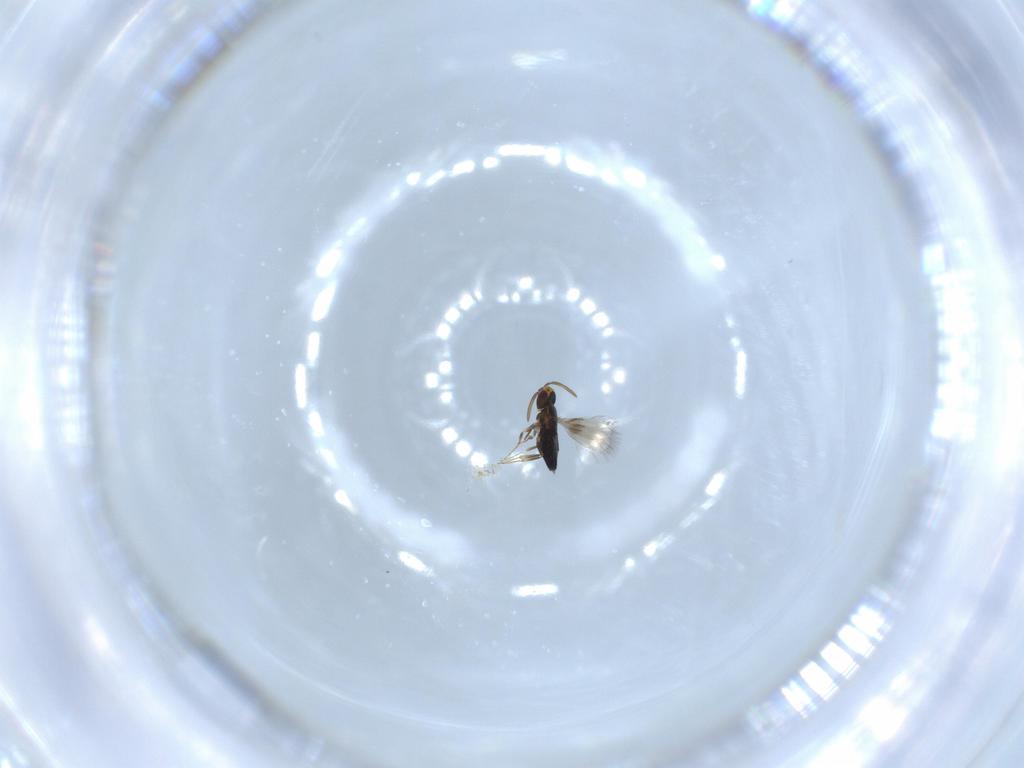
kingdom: Animalia
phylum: Arthropoda
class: Insecta
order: Hymenoptera
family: Signiphoridae
